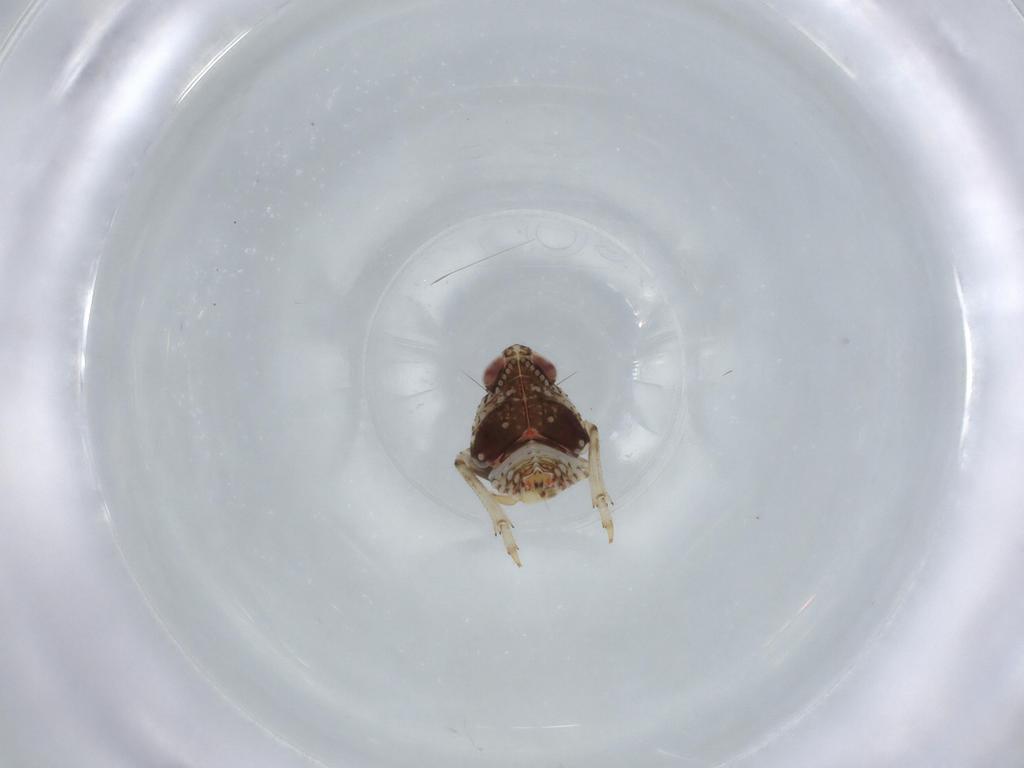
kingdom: Animalia
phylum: Arthropoda
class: Insecta
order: Hemiptera
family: Issidae
